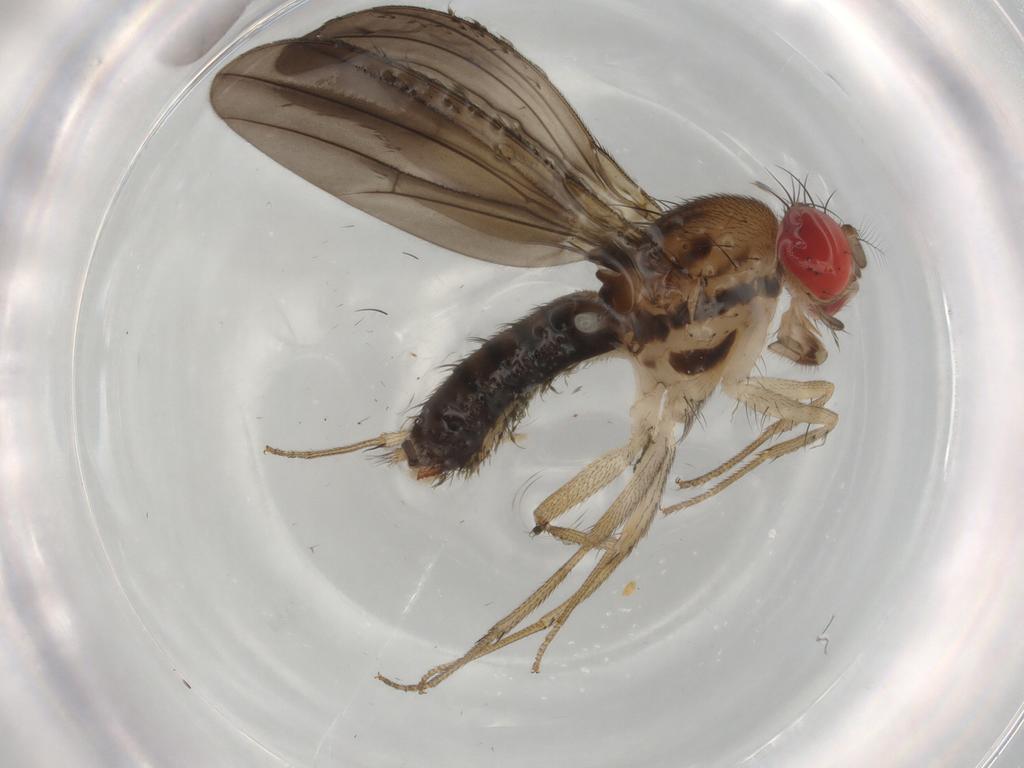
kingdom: Animalia
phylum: Arthropoda
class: Insecta
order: Diptera
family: Drosophilidae
